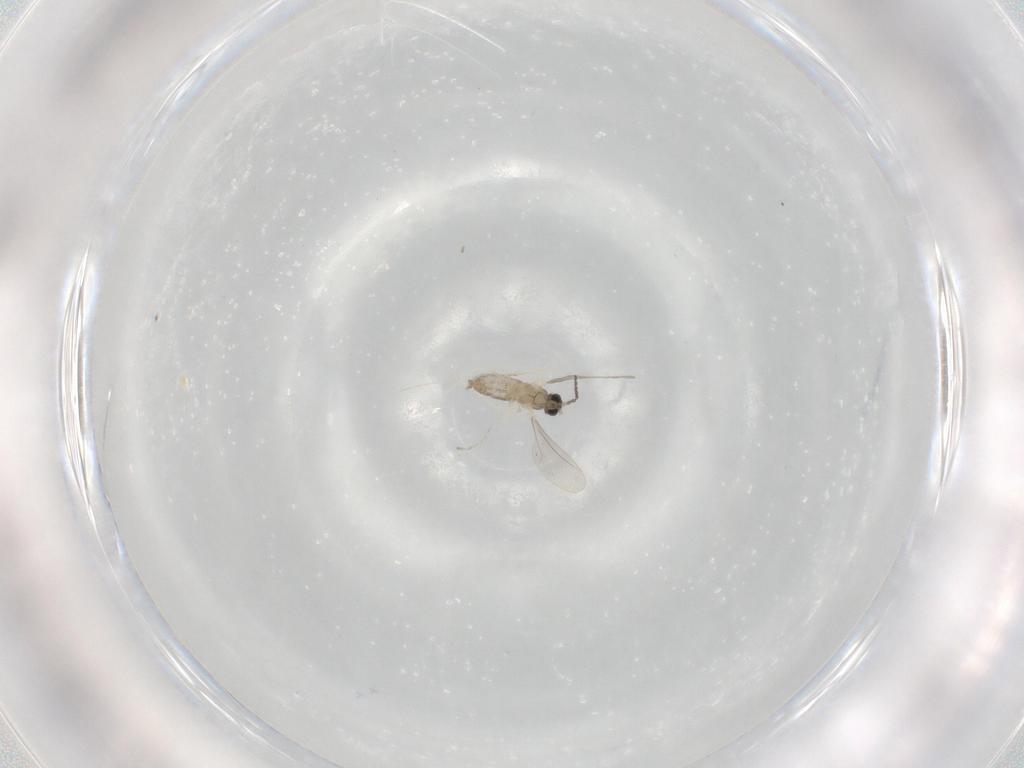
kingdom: Animalia
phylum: Arthropoda
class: Insecta
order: Diptera
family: Cecidomyiidae
